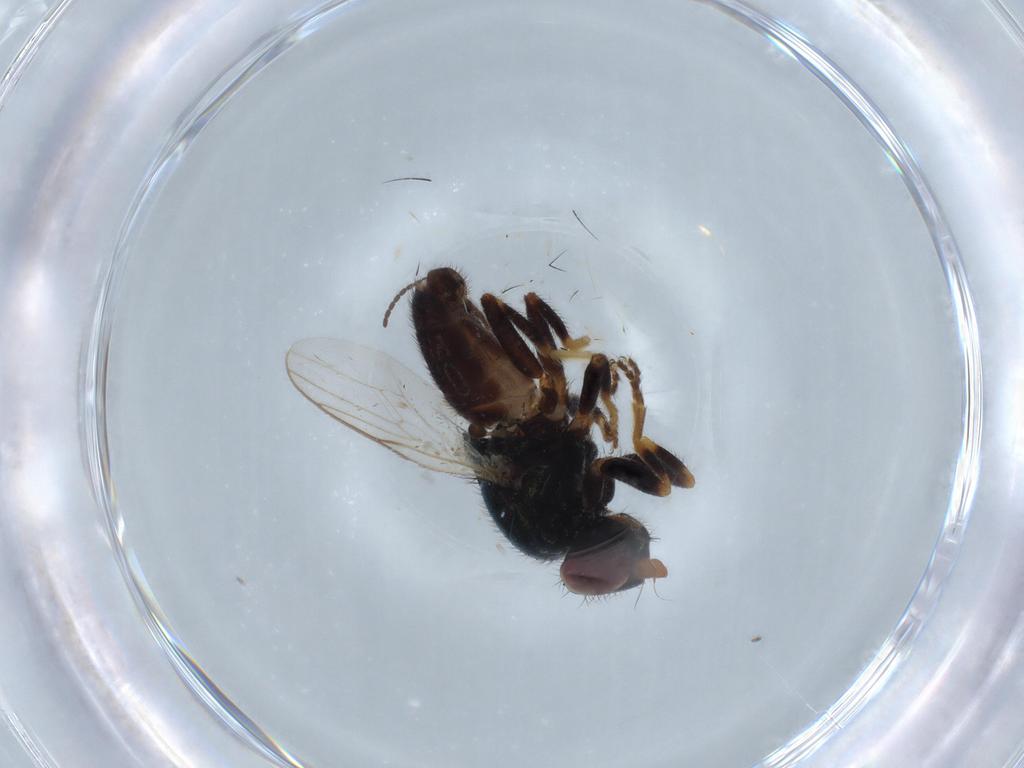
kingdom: Animalia
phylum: Arthropoda
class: Insecta
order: Diptera
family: Chloropidae
